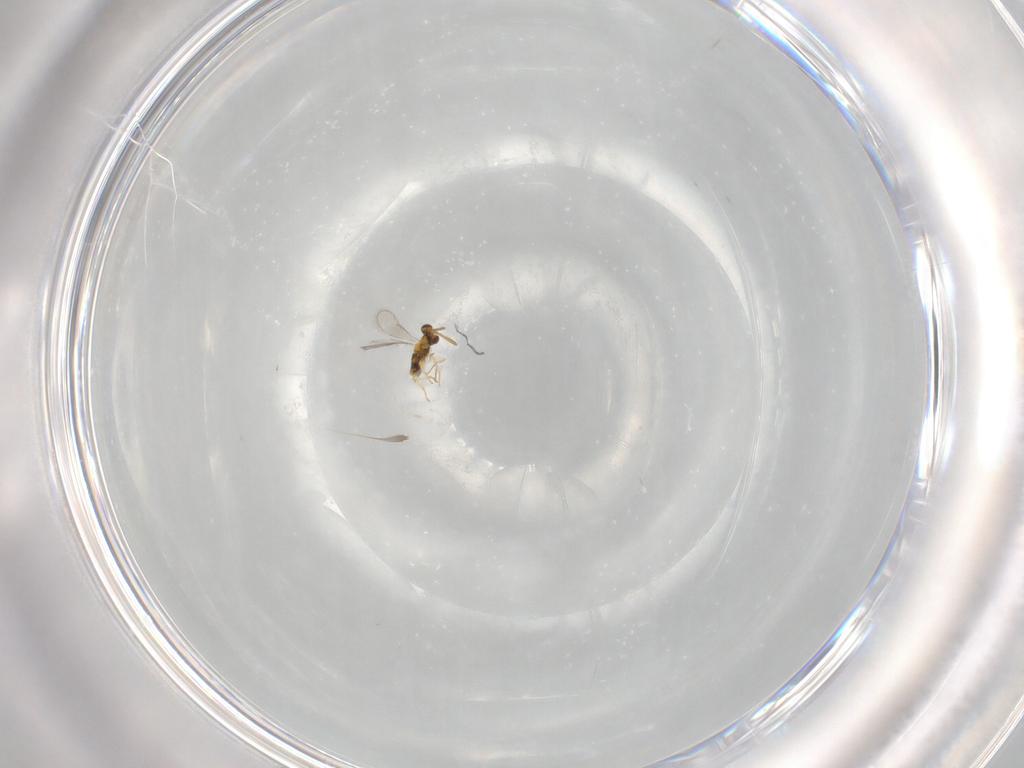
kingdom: Animalia
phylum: Arthropoda
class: Insecta
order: Hymenoptera
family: Aphelinidae
